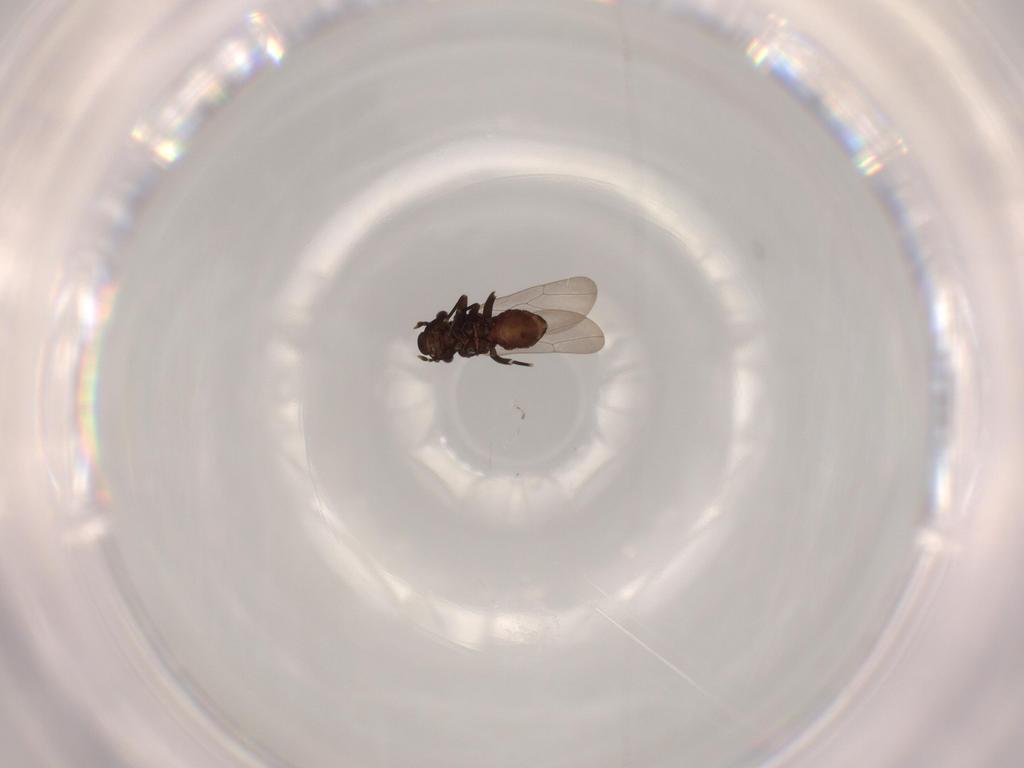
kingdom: Animalia
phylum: Arthropoda
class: Insecta
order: Psocodea
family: Lepidopsocidae
